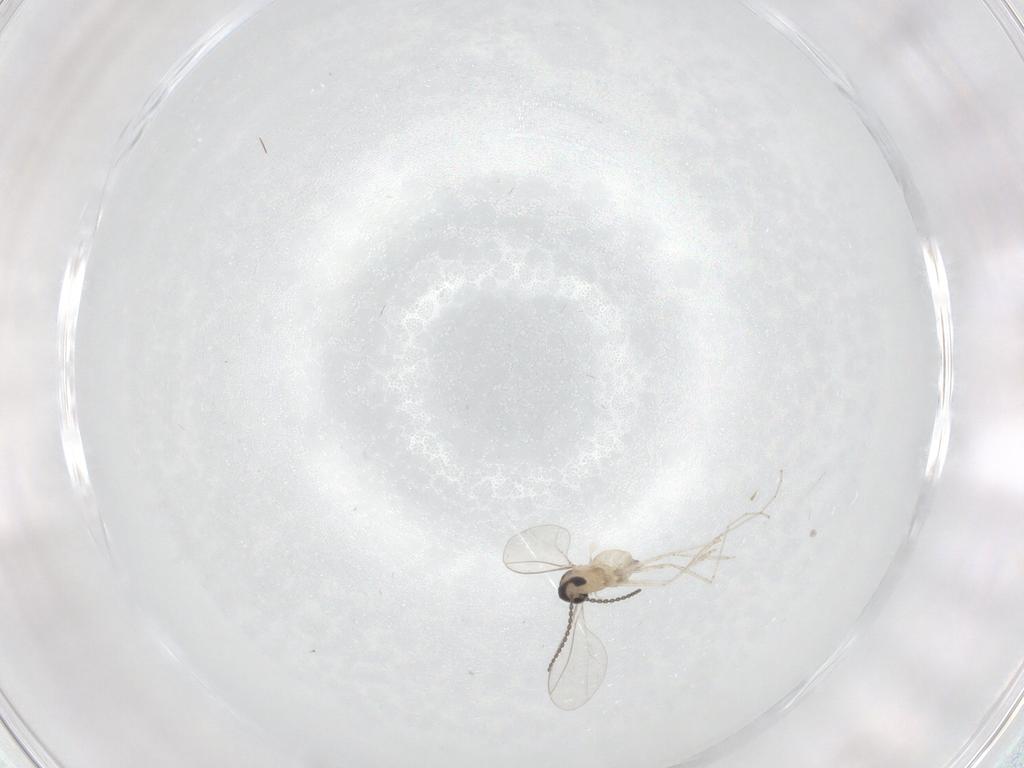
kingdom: Animalia
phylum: Arthropoda
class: Insecta
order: Diptera
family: Cecidomyiidae
